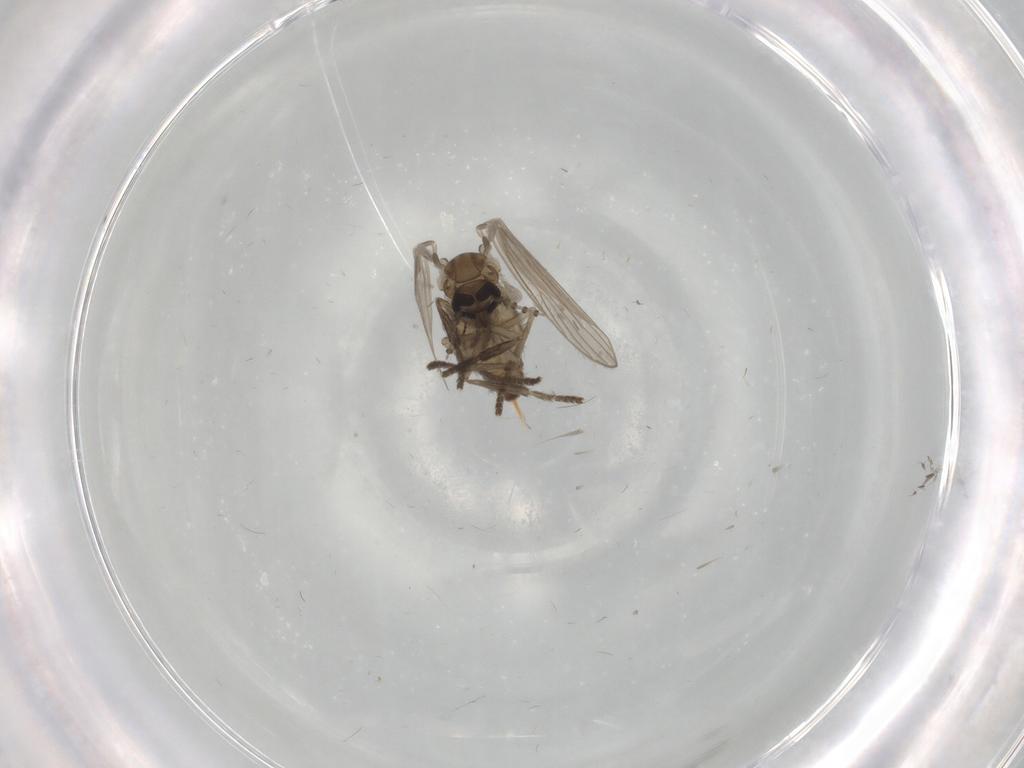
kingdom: Animalia
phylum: Arthropoda
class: Insecta
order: Diptera
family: Psychodidae
